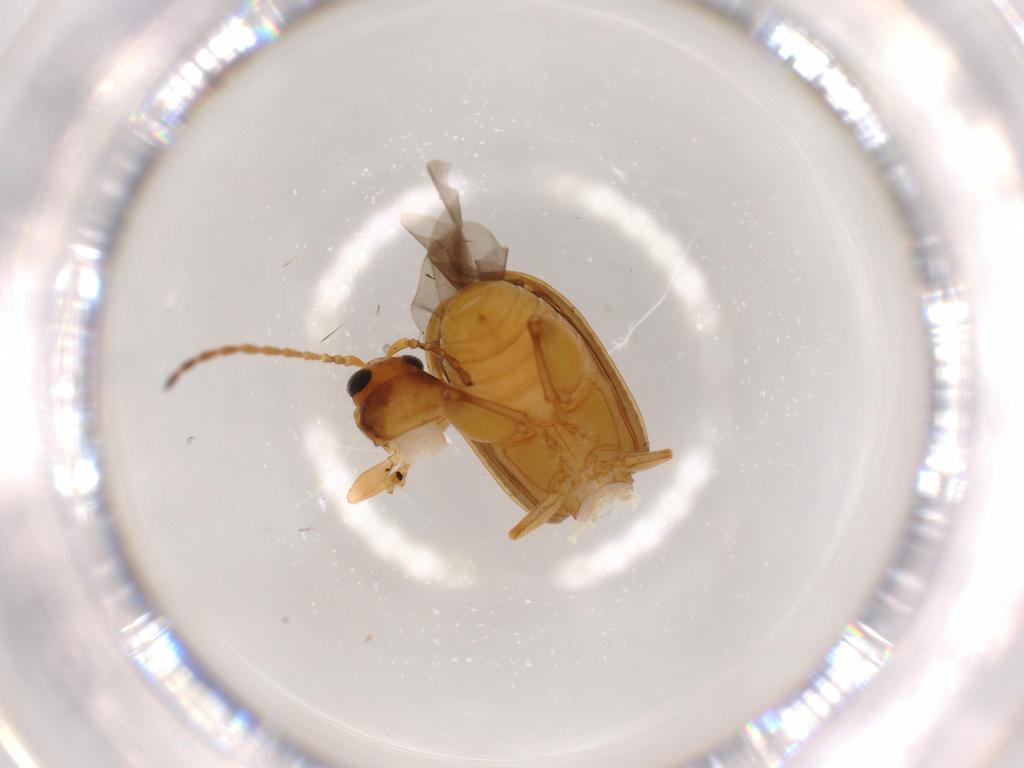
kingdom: Animalia
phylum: Arthropoda
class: Insecta
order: Coleoptera
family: Chrysomelidae
